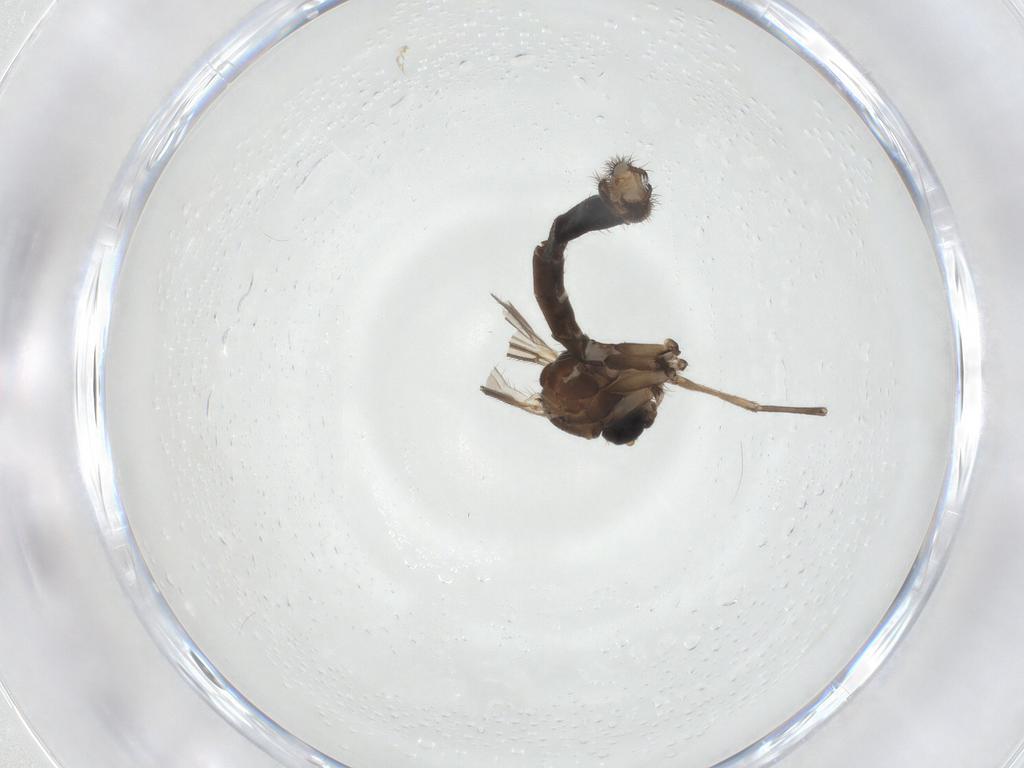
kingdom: Animalia
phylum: Arthropoda
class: Insecta
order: Diptera
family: Mycetophilidae
